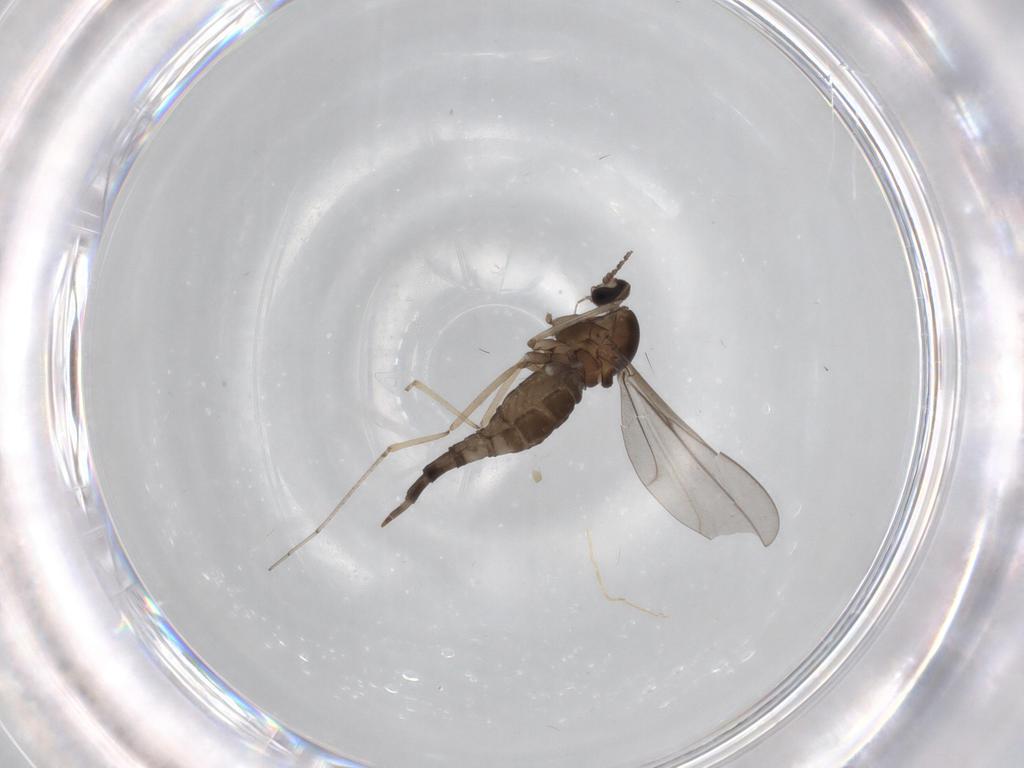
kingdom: Animalia
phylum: Arthropoda
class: Insecta
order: Diptera
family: Cecidomyiidae
